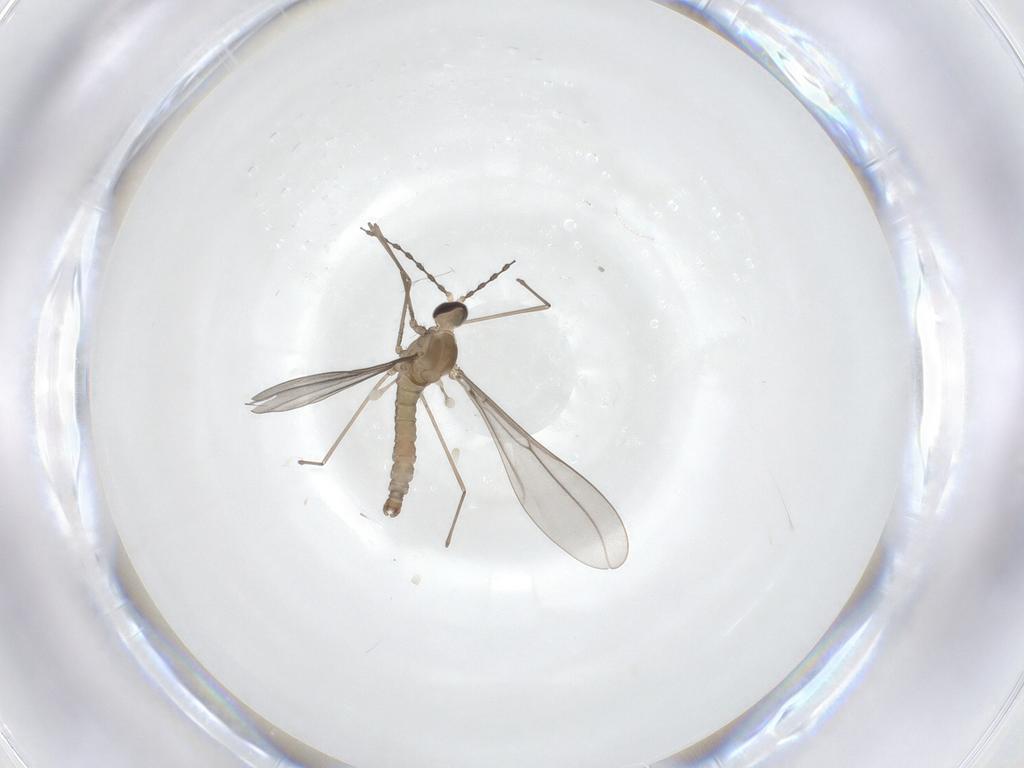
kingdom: Animalia
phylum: Arthropoda
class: Insecta
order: Diptera
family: Cecidomyiidae
